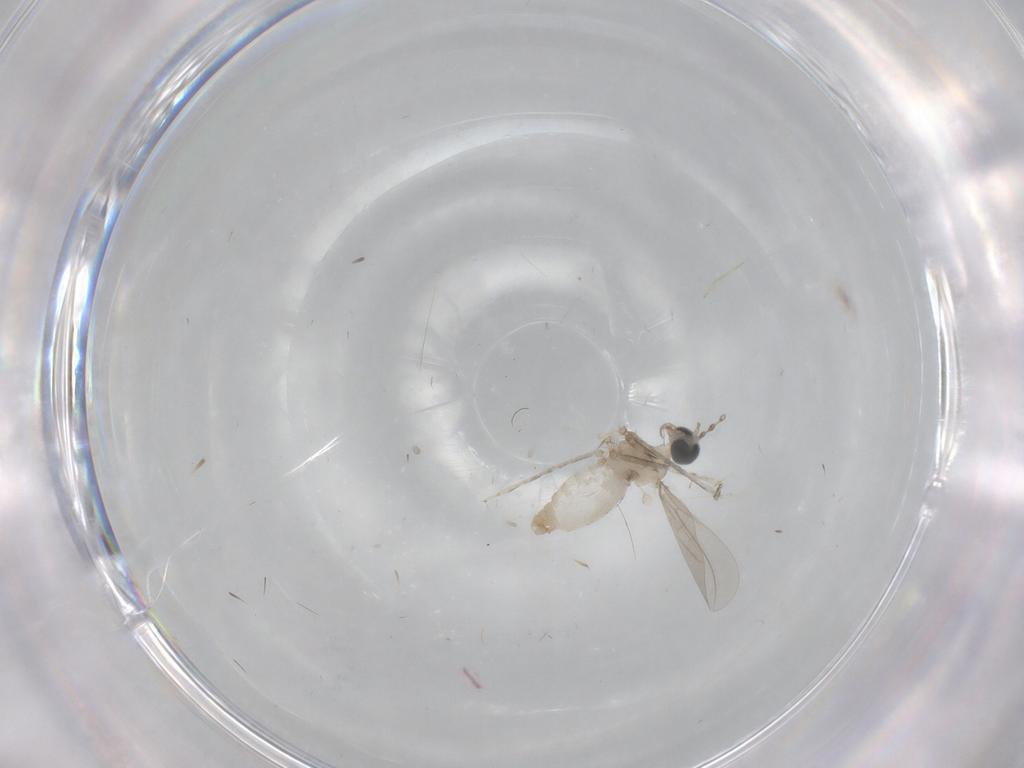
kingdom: Animalia
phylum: Arthropoda
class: Insecta
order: Diptera
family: Cecidomyiidae
